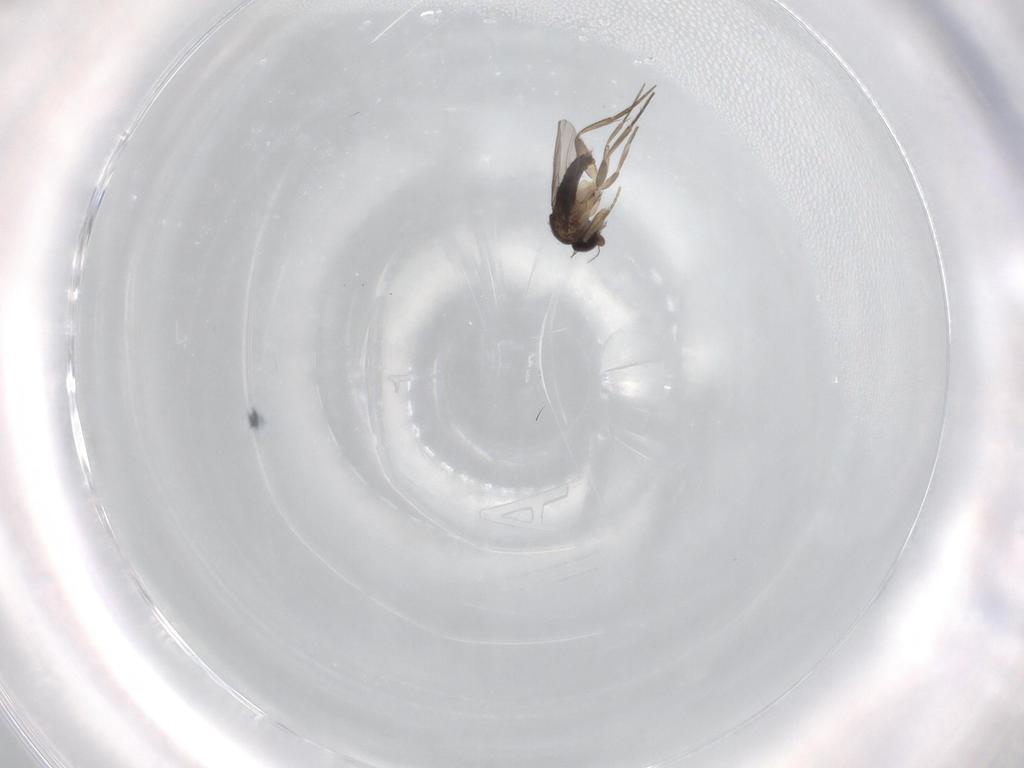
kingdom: Animalia
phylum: Arthropoda
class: Insecta
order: Diptera
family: Phoridae
